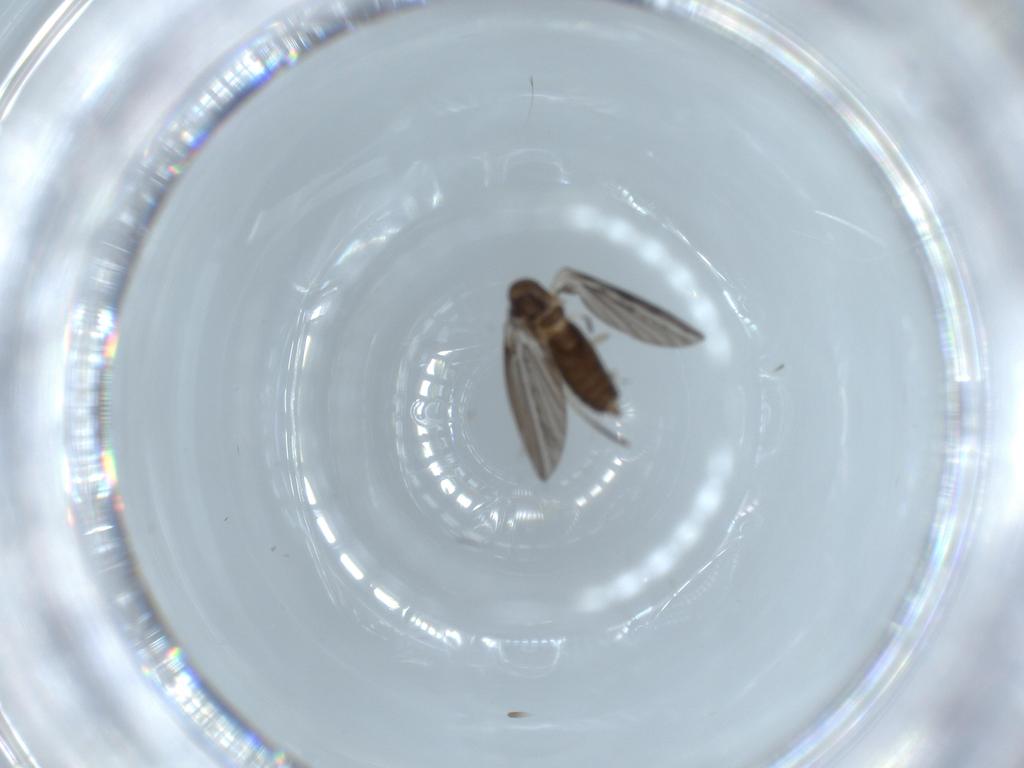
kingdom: Animalia
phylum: Arthropoda
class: Insecta
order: Diptera
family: Psychodidae
